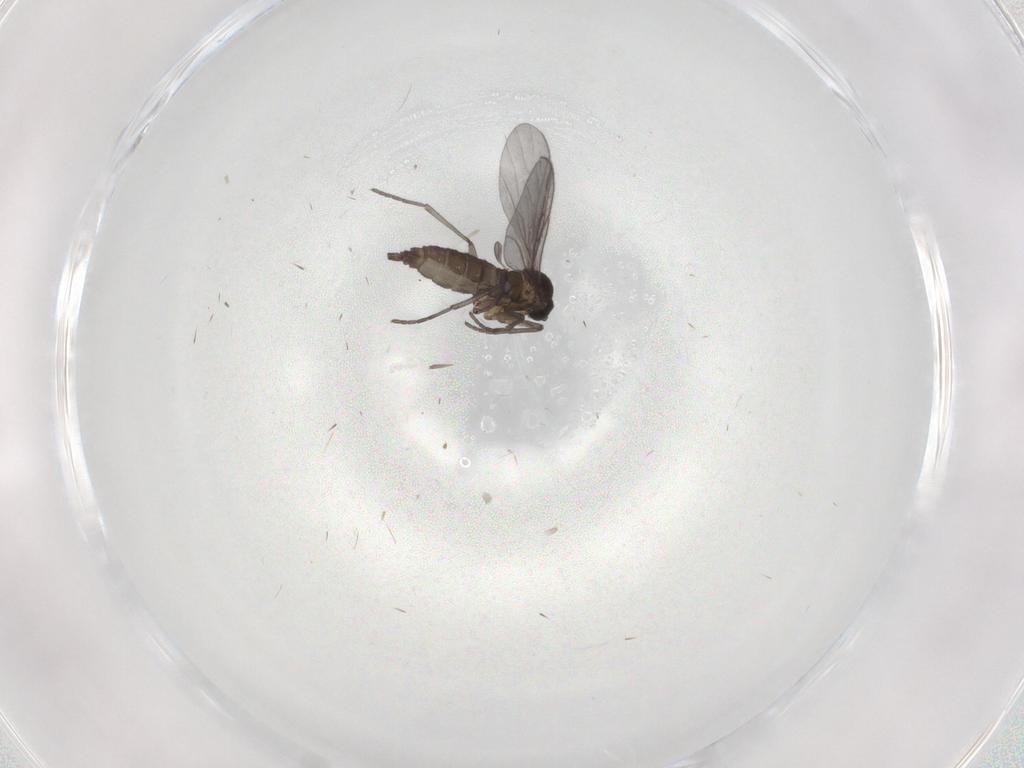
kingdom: Animalia
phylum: Arthropoda
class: Insecta
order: Diptera
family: Phoridae
